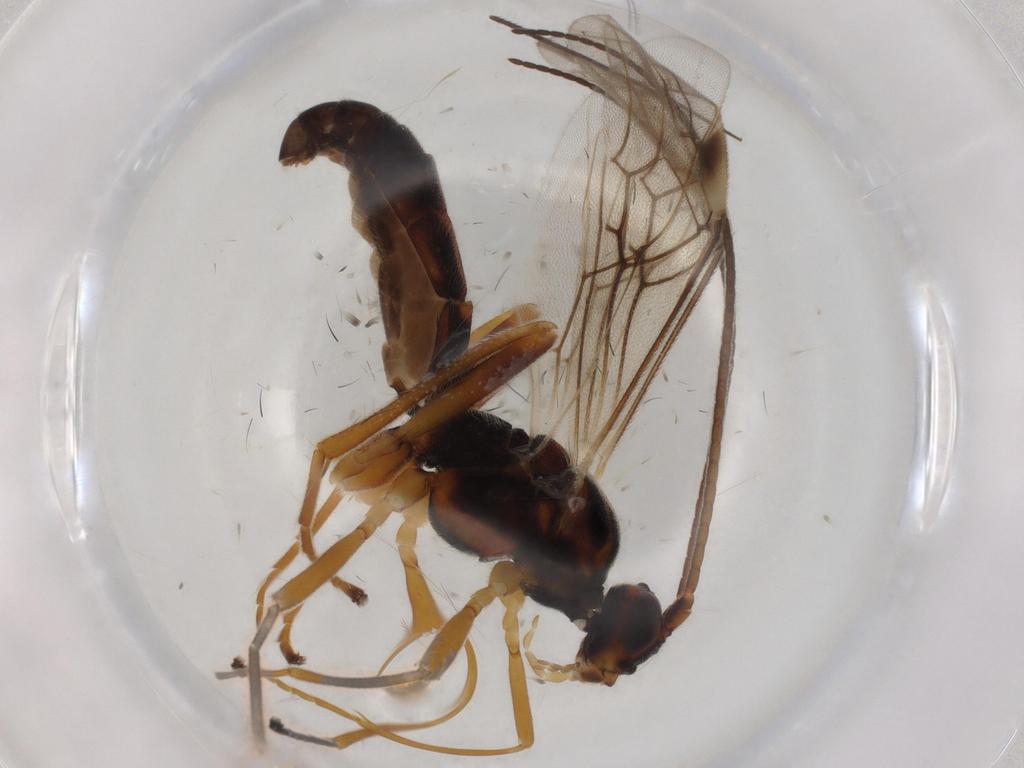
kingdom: Animalia
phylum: Arthropoda
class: Insecta
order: Hymenoptera
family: Braconidae
